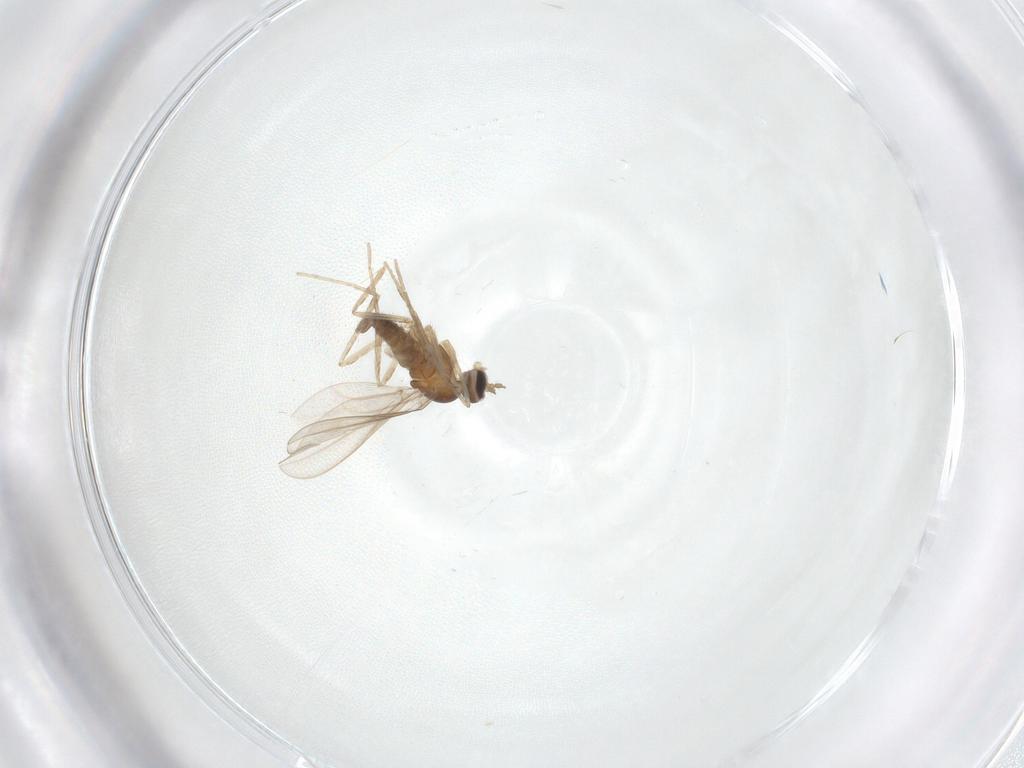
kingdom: Animalia
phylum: Arthropoda
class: Insecta
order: Diptera
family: Cecidomyiidae
